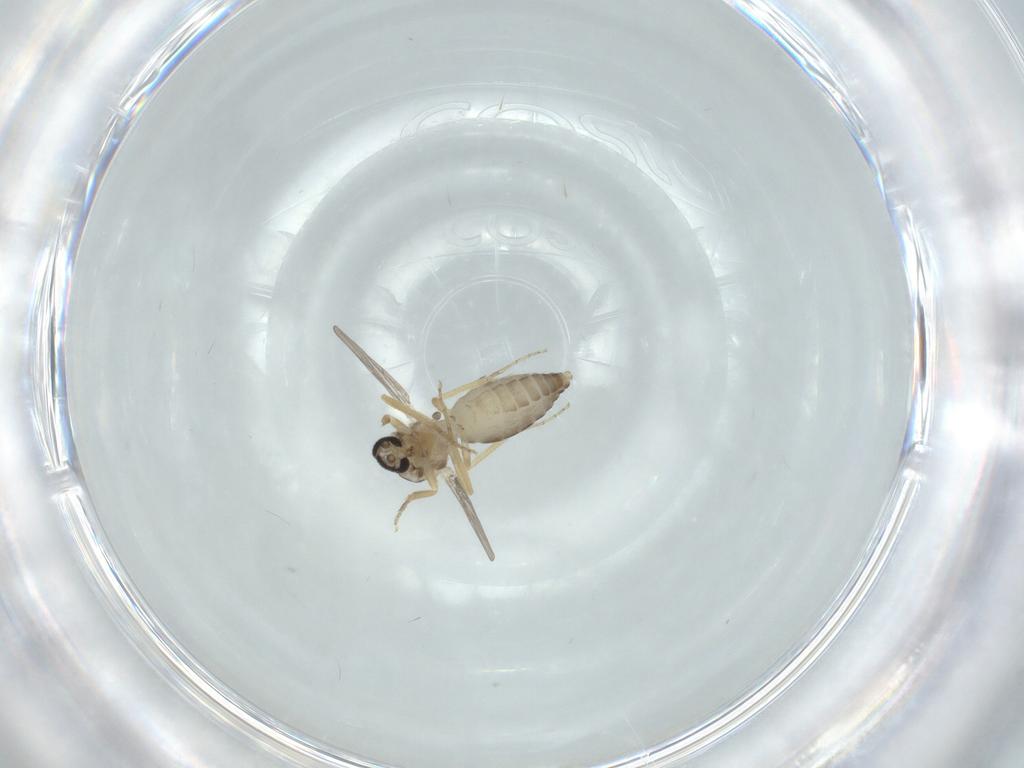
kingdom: Animalia
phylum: Arthropoda
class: Insecta
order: Diptera
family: Ceratopogonidae
